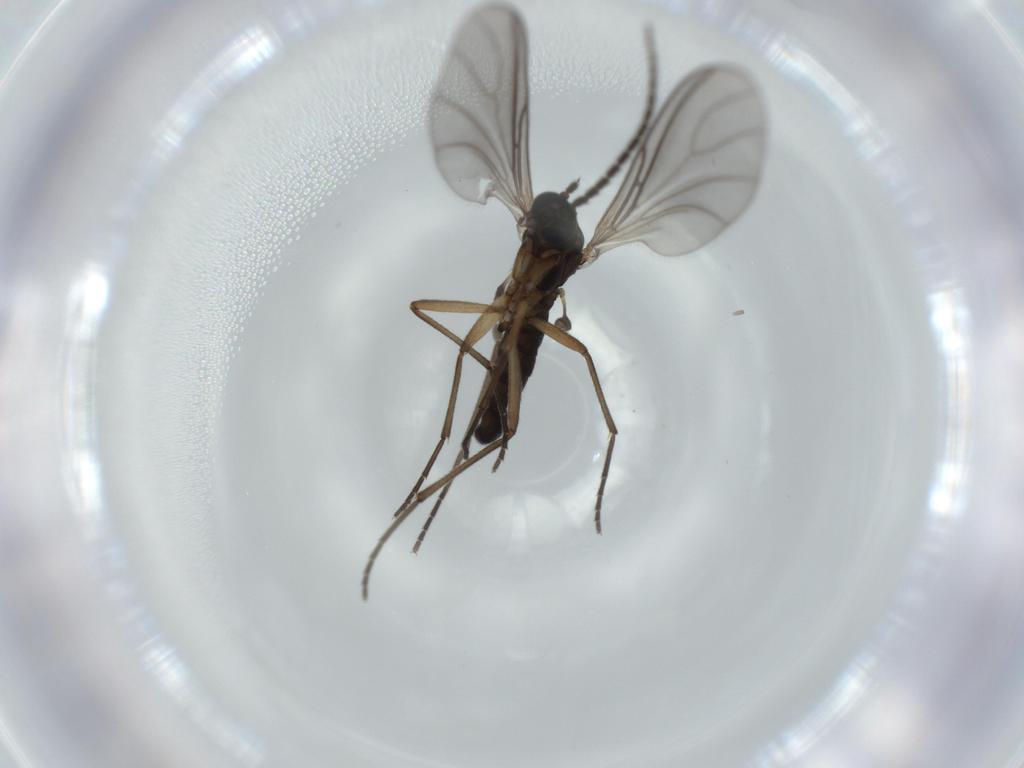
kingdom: Animalia
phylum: Arthropoda
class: Insecta
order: Diptera
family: Sciaridae
